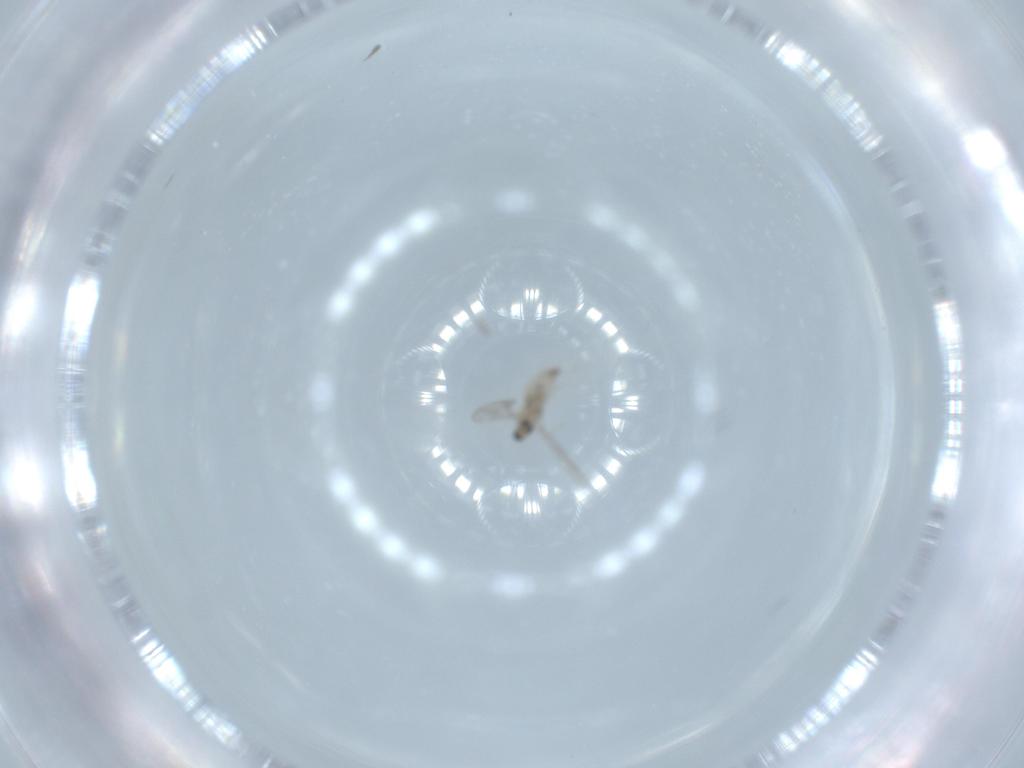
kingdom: Animalia
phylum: Arthropoda
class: Insecta
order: Diptera
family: Cecidomyiidae
